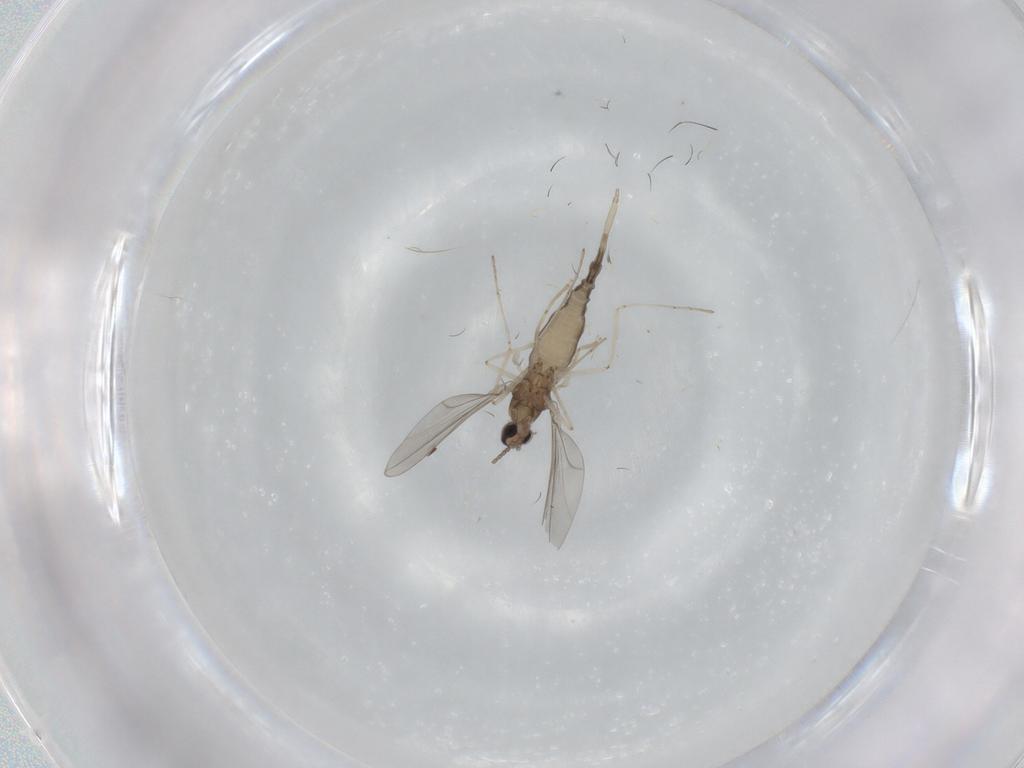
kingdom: Animalia
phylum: Arthropoda
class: Insecta
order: Diptera
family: Cecidomyiidae
